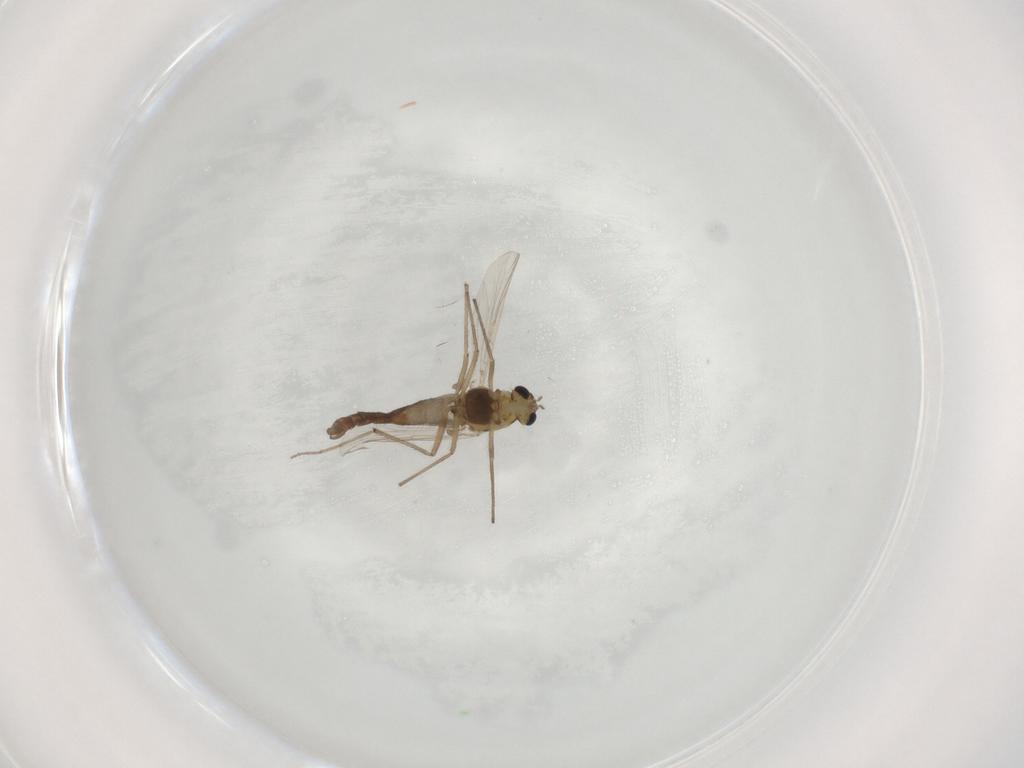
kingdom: Animalia
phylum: Arthropoda
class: Insecta
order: Diptera
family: Chironomidae
